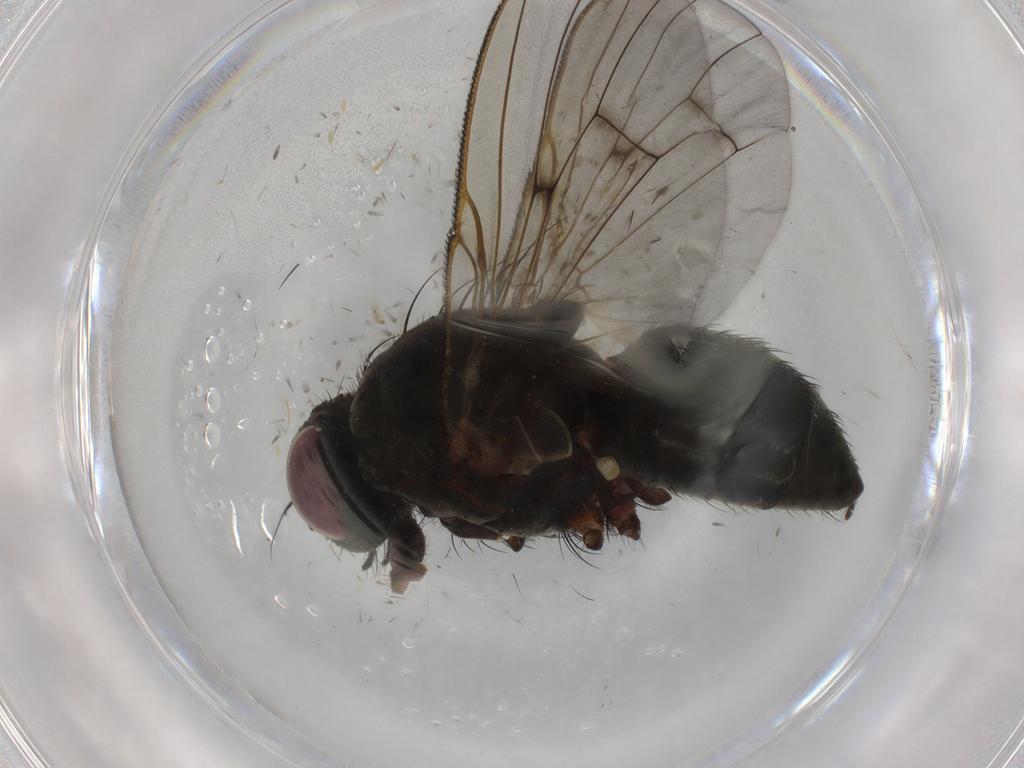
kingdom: Animalia
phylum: Arthropoda
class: Insecta
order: Diptera
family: Muscidae
